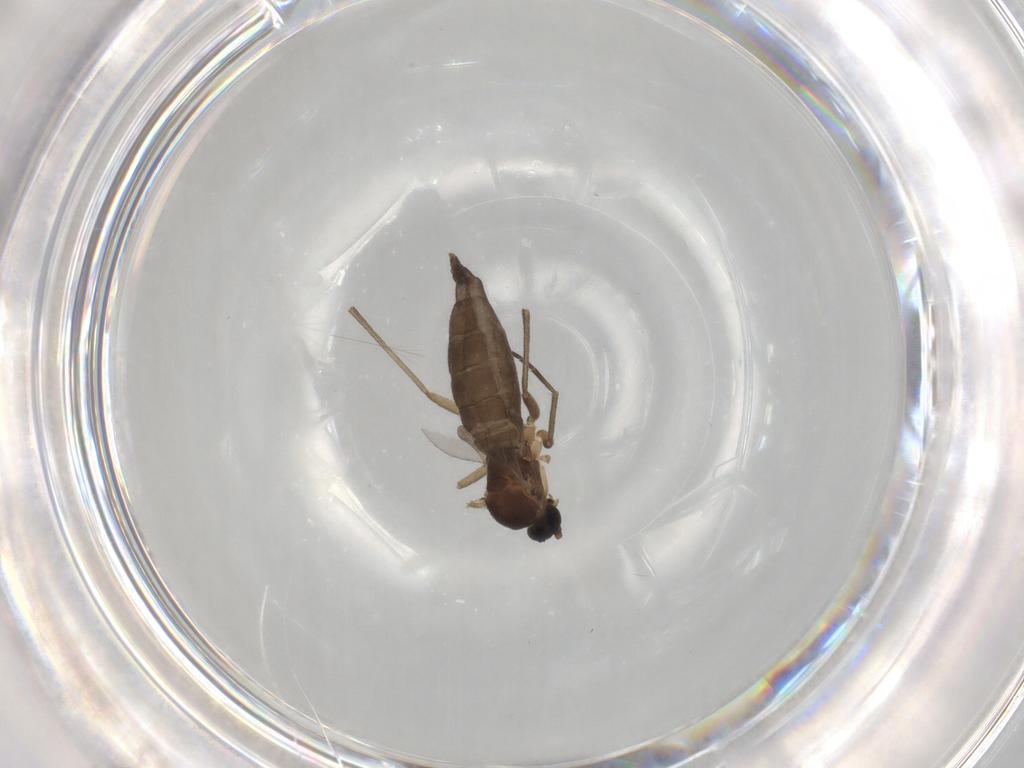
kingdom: Animalia
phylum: Arthropoda
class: Insecta
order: Diptera
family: Sciaridae
